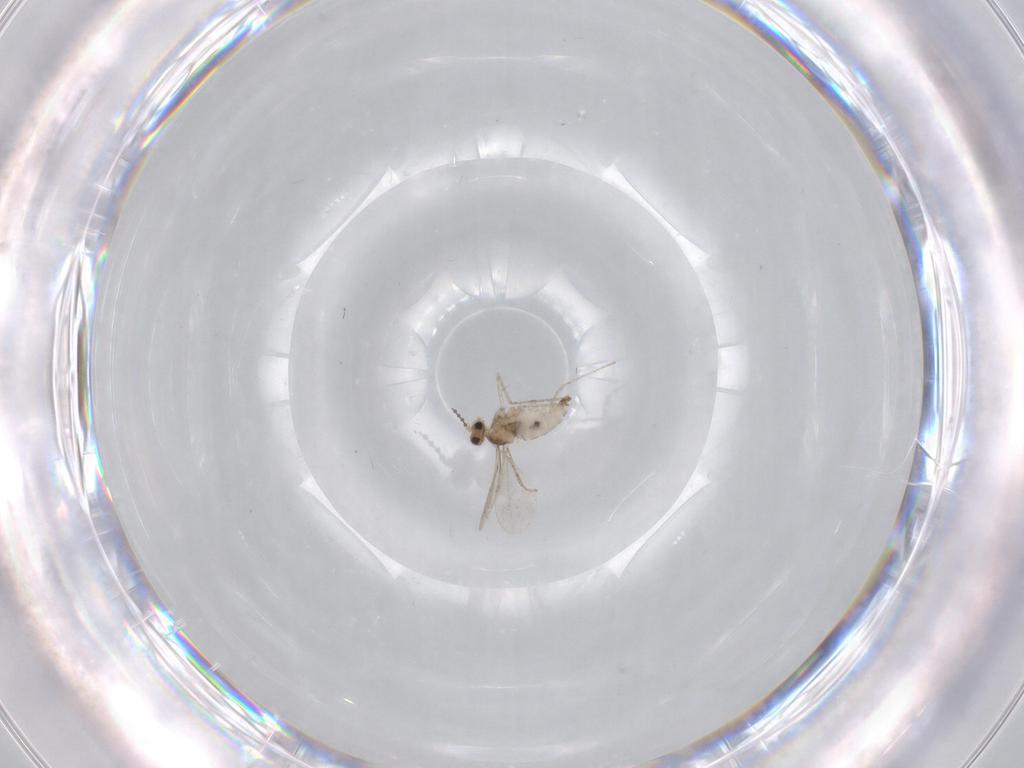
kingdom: Animalia
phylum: Arthropoda
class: Insecta
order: Diptera
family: Cecidomyiidae
